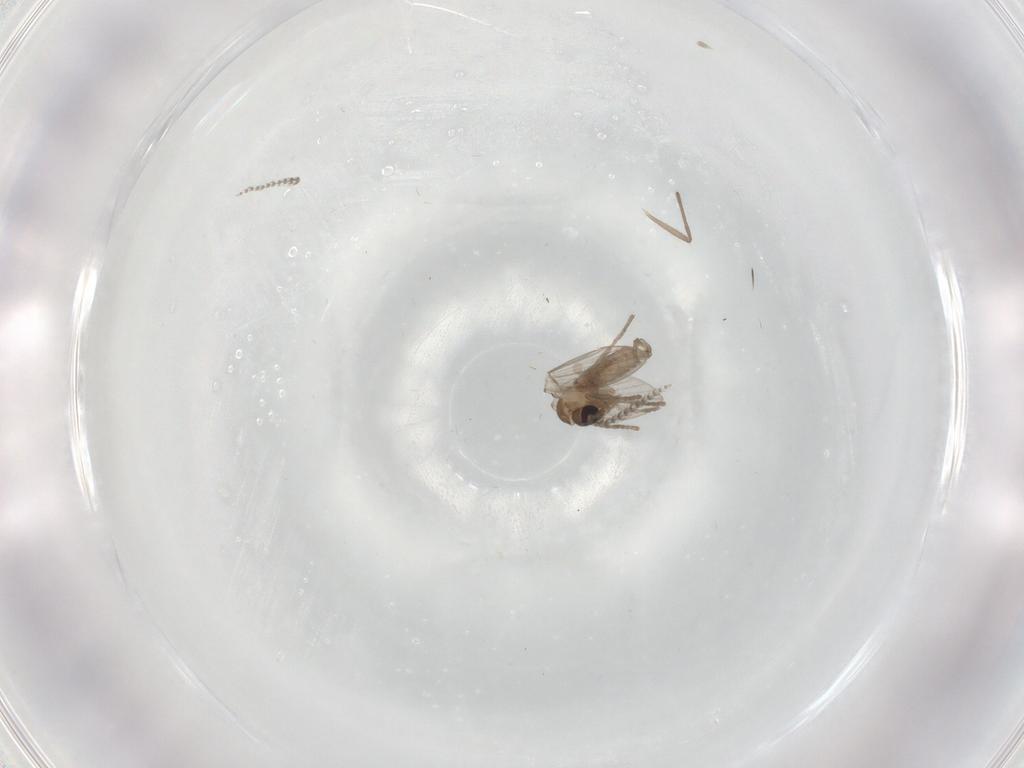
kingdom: Animalia
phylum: Arthropoda
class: Insecta
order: Diptera
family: Psychodidae
